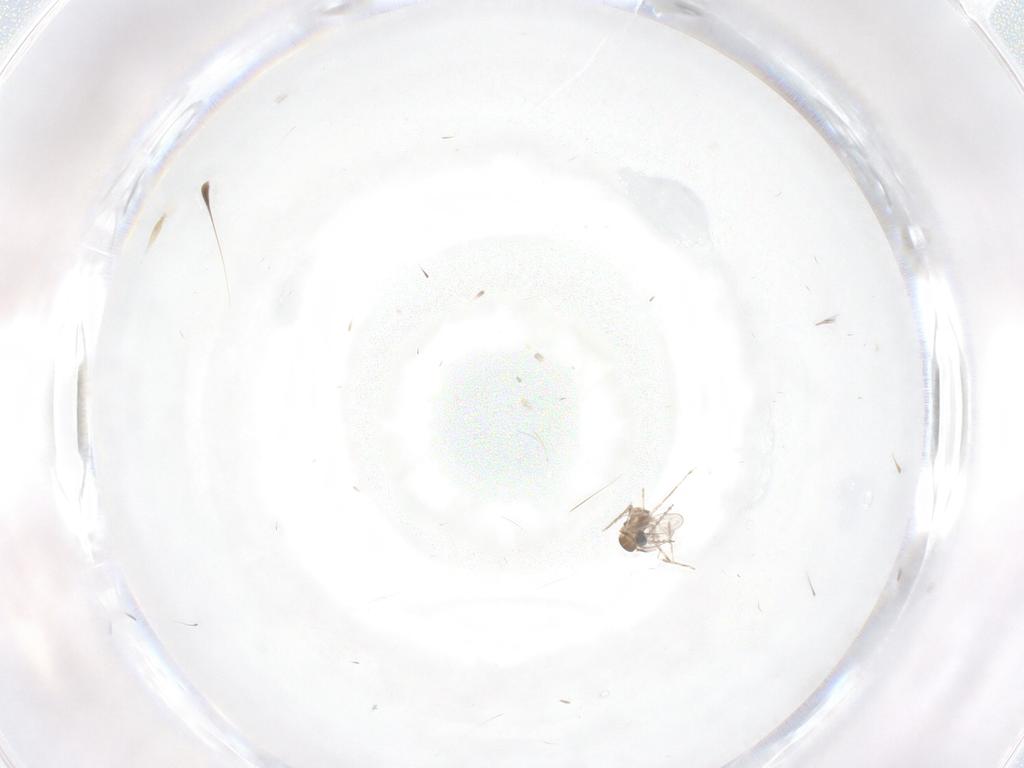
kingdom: Animalia
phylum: Arthropoda
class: Insecta
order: Diptera
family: Cecidomyiidae
